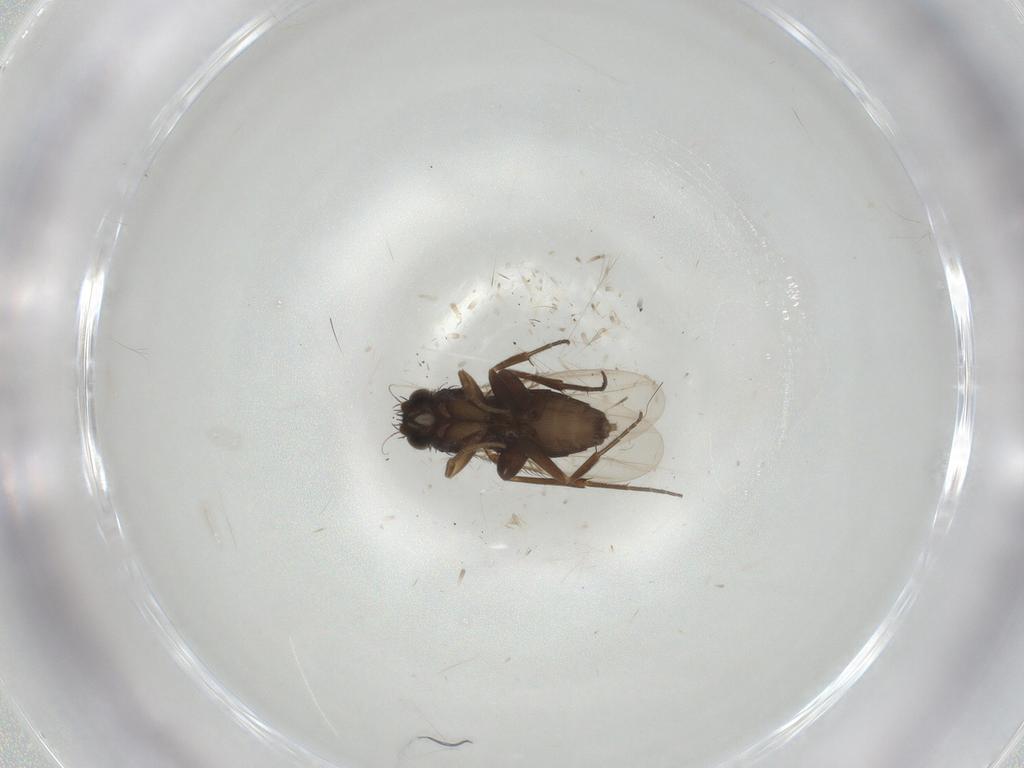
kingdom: Animalia
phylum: Arthropoda
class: Insecta
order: Diptera
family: Phoridae
